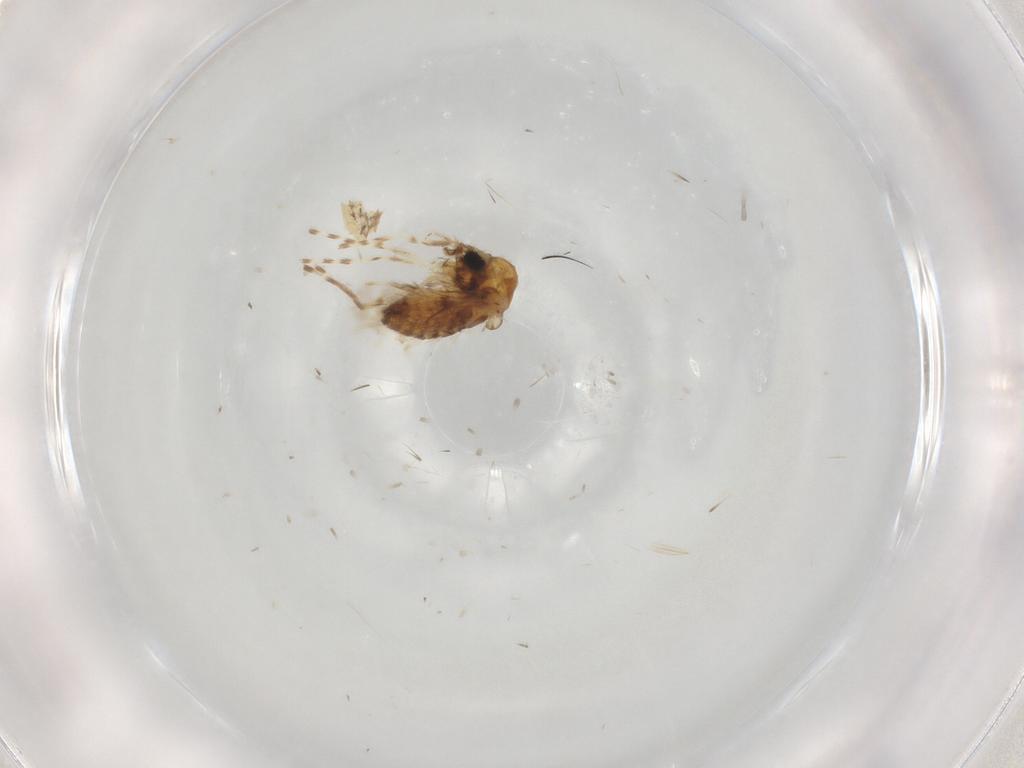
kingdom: Animalia
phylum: Arthropoda
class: Insecta
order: Diptera
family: Chironomidae
